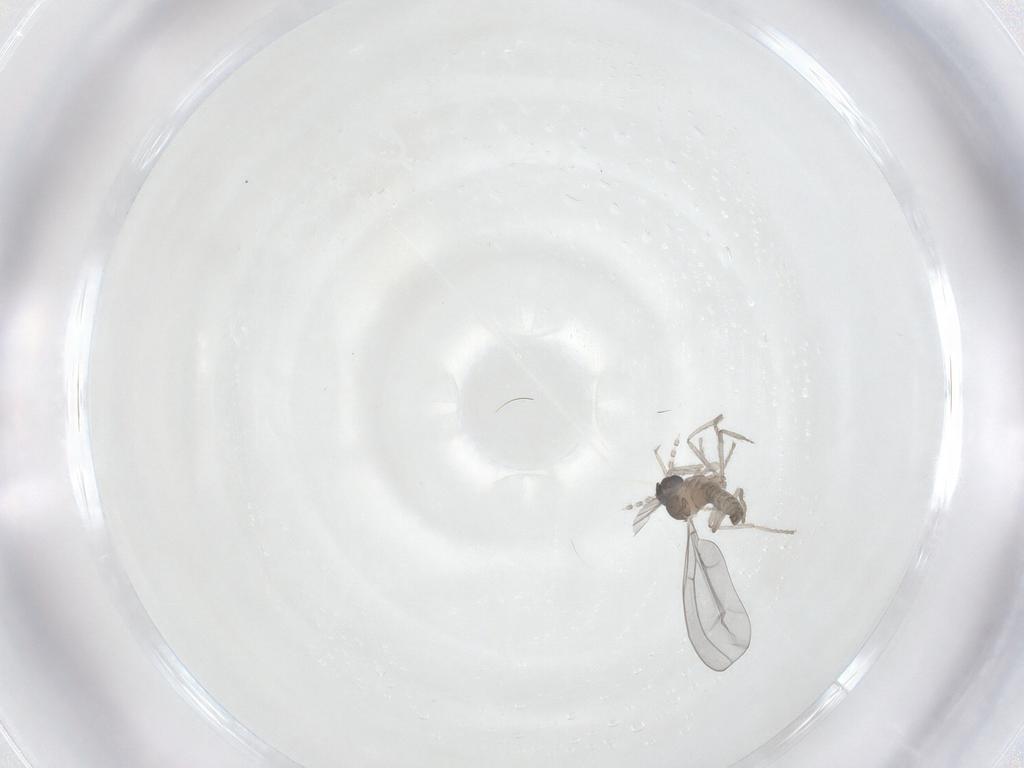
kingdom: Animalia
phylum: Arthropoda
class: Insecta
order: Diptera
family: Cecidomyiidae
